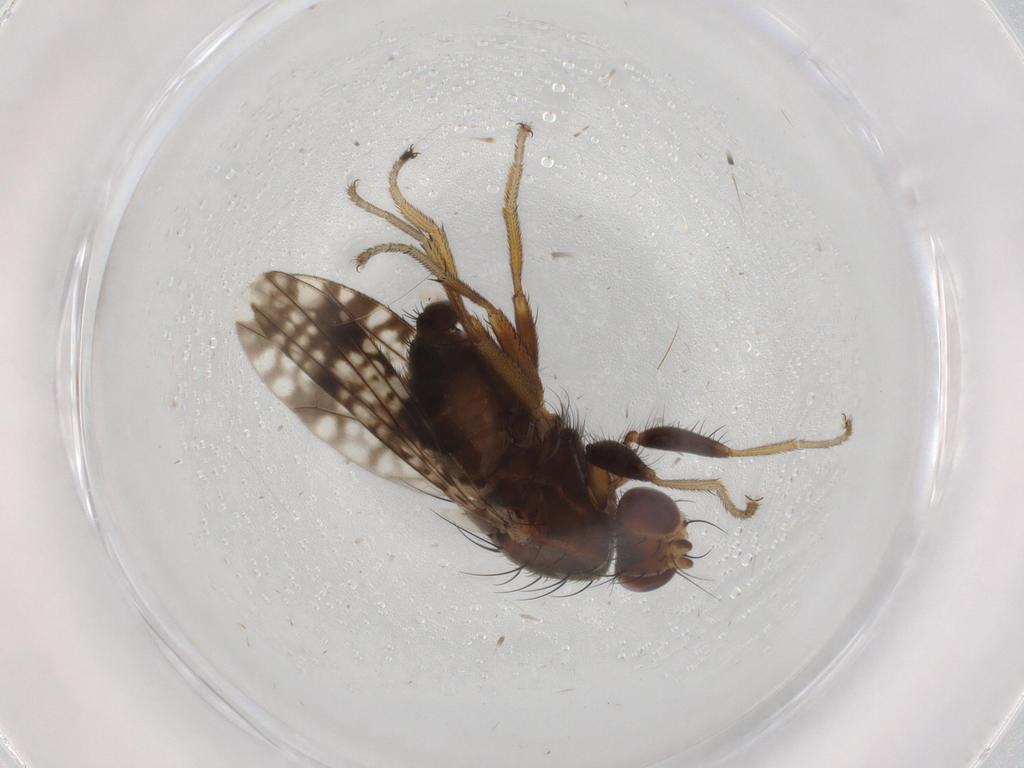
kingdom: Animalia
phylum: Arthropoda
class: Insecta
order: Diptera
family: Tephritidae
